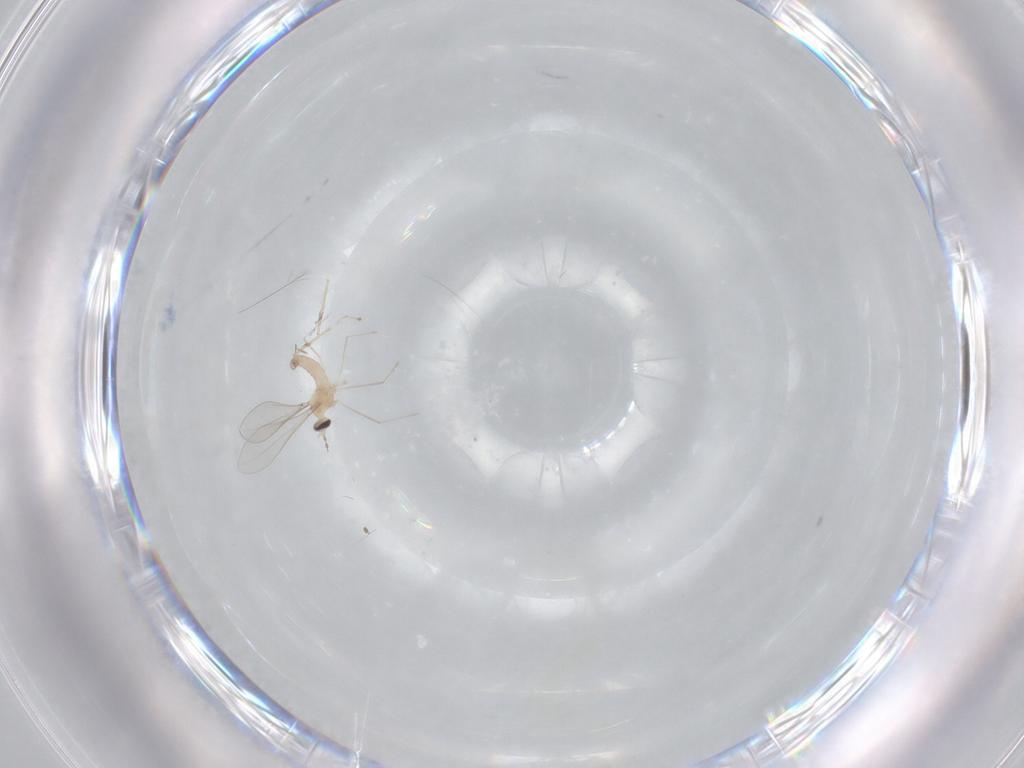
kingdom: Animalia
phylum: Arthropoda
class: Insecta
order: Diptera
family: Cecidomyiidae
